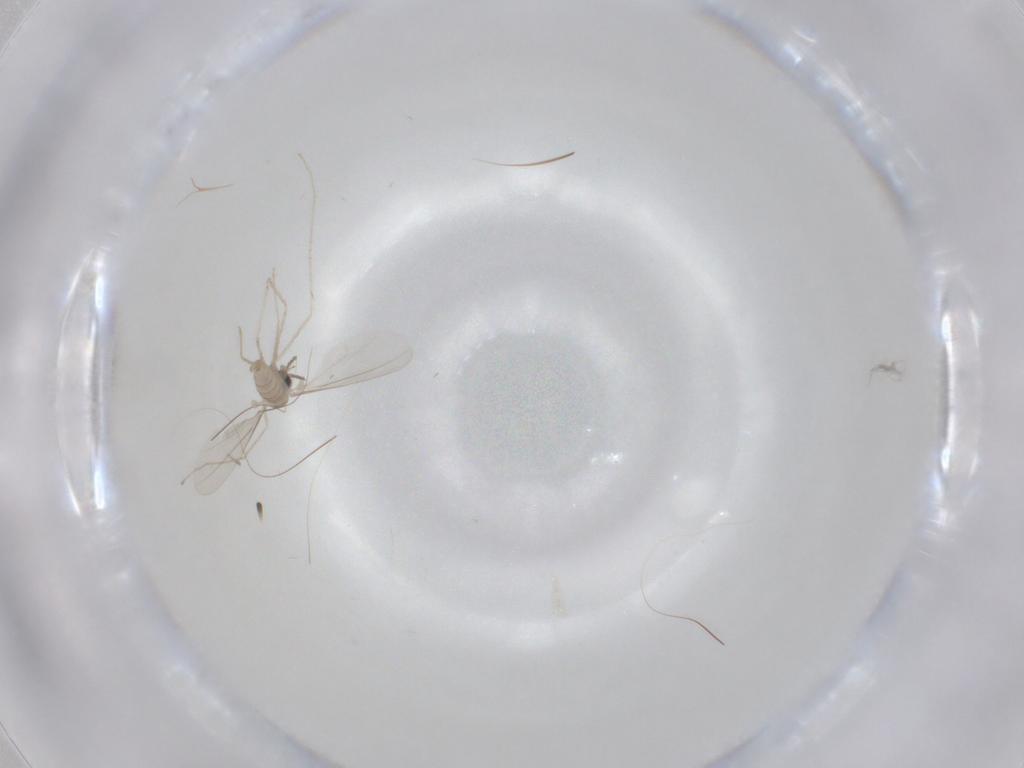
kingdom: Animalia
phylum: Arthropoda
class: Insecta
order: Diptera
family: Sciaridae
